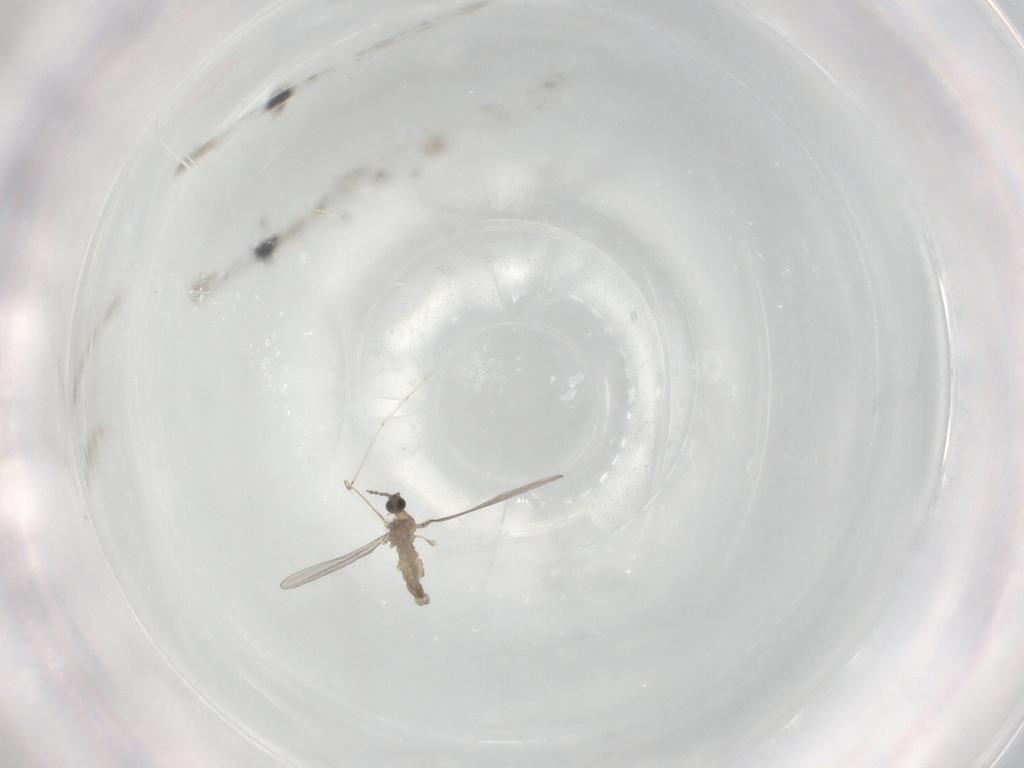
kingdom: Animalia
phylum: Arthropoda
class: Insecta
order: Diptera
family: Cecidomyiidae
